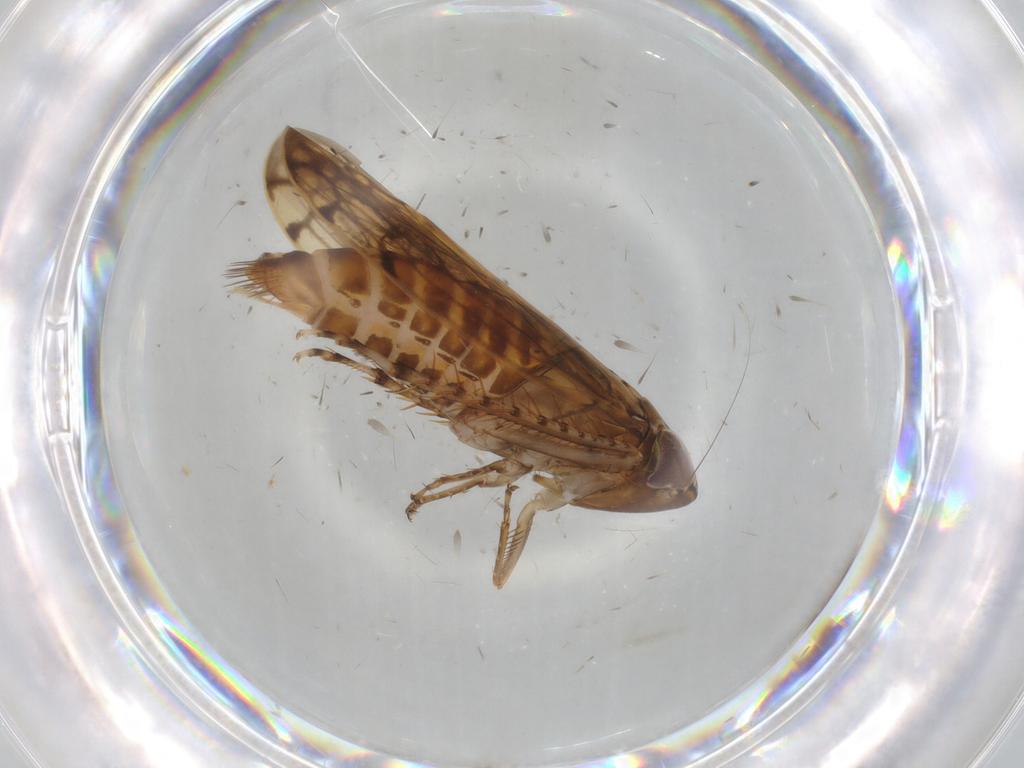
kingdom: Animalia
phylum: Arthropoda
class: Insecta
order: Hemiptera
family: Cicadellidae
